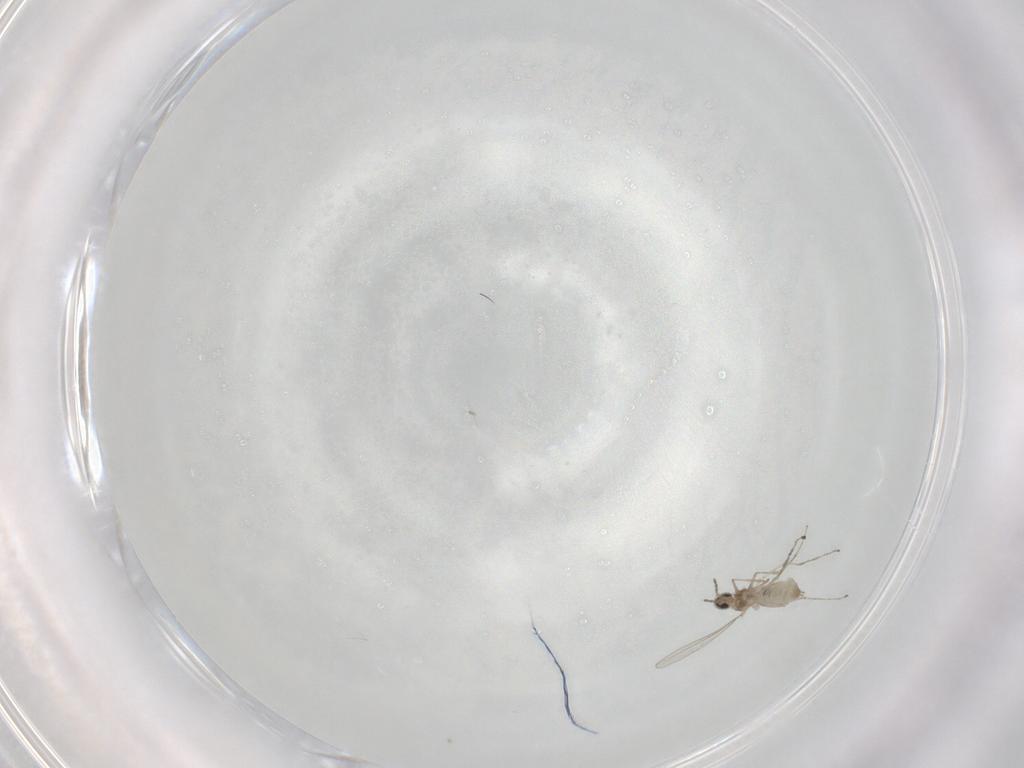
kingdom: Animalia
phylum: Arthropoda
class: Insecta
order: Diptera
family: Cecidomyiidae
